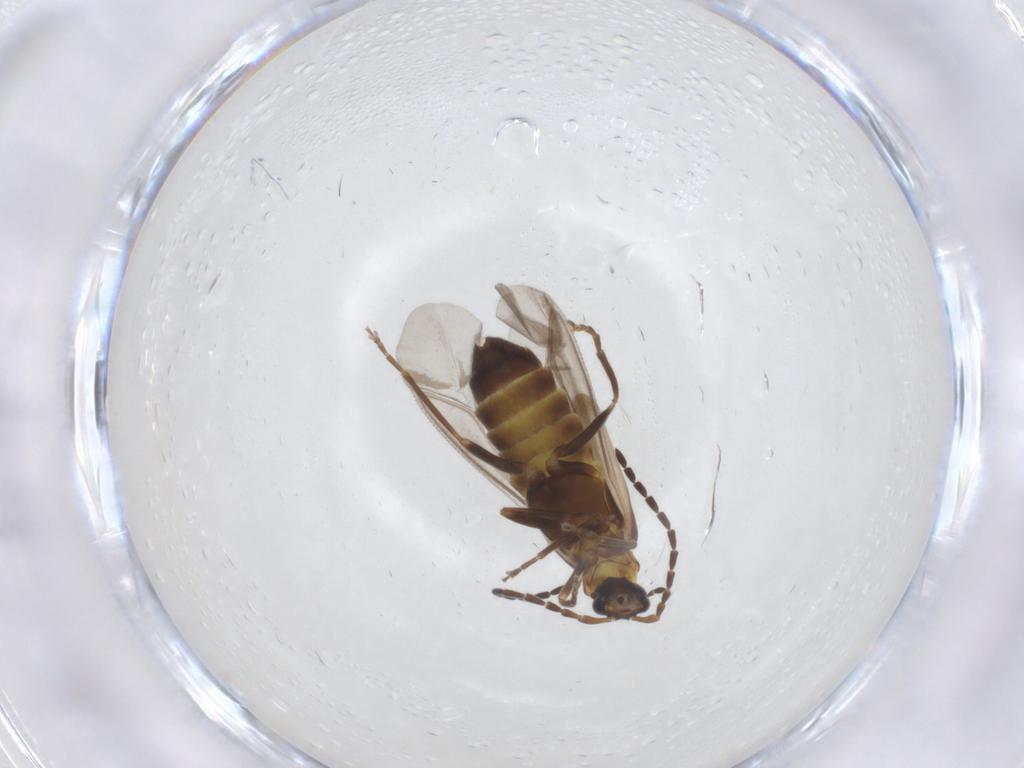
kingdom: Animalia
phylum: Arthropoda
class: Insecta
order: Coleoptera
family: Cantharidae
